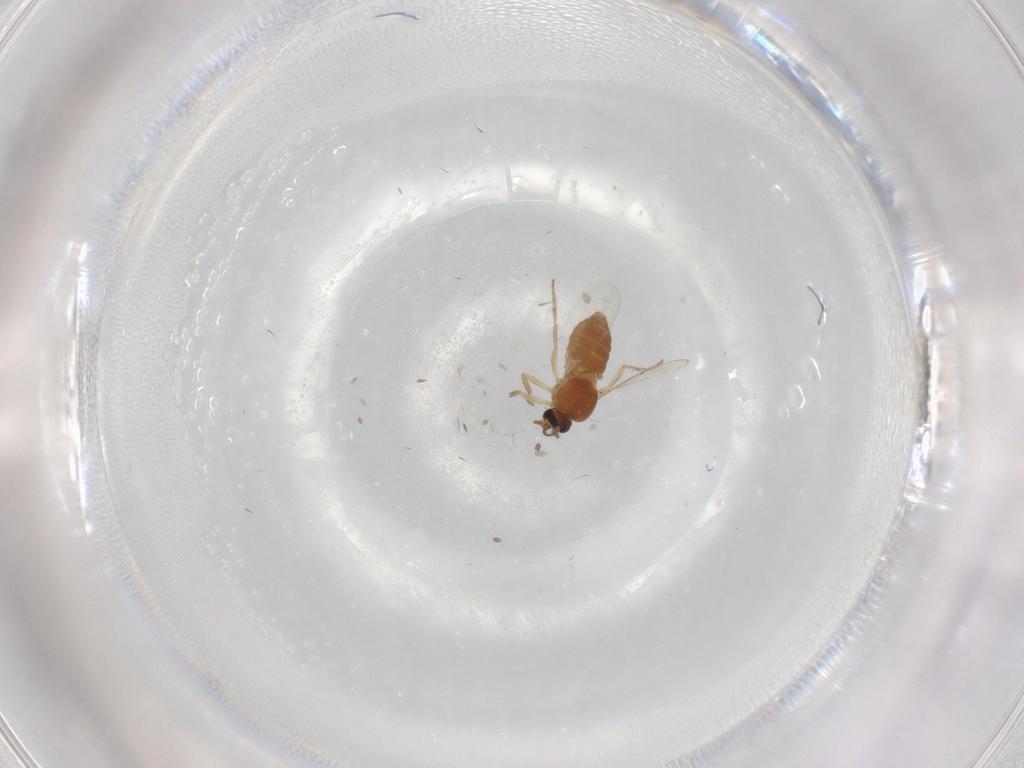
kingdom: Animalia
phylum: Arthropoda
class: Insecta
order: Diptera
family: Ceratopogonidae
